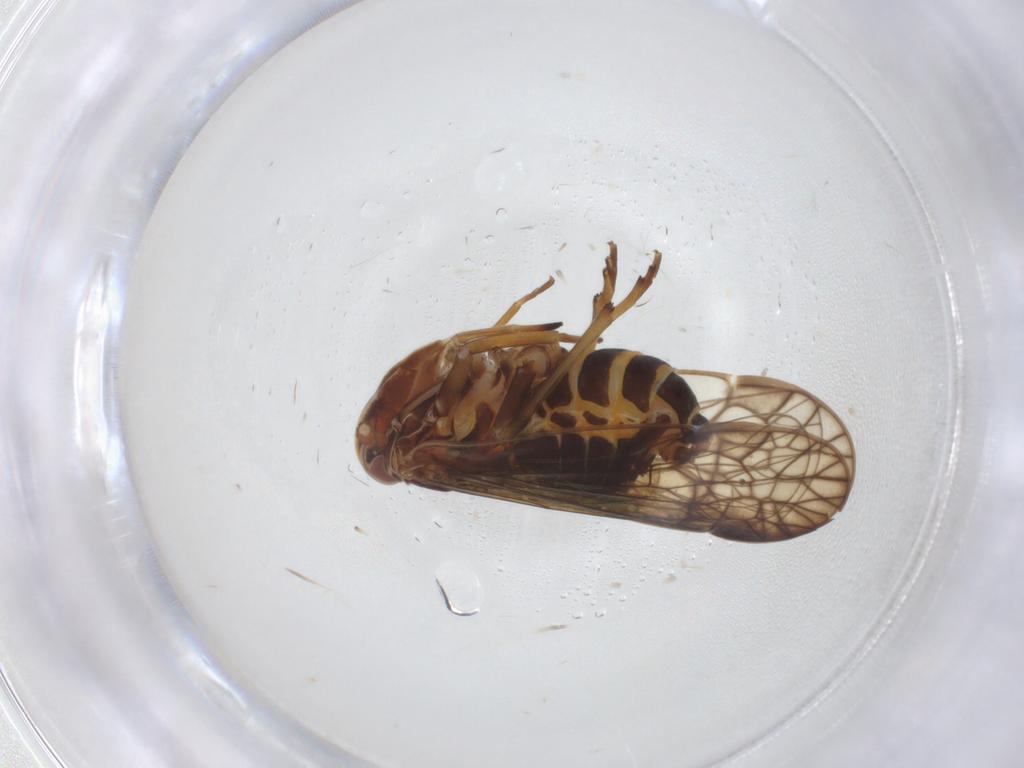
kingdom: Animalia
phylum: Arthropoda
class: Insecta
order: Hemiptera
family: Kinnaridae
